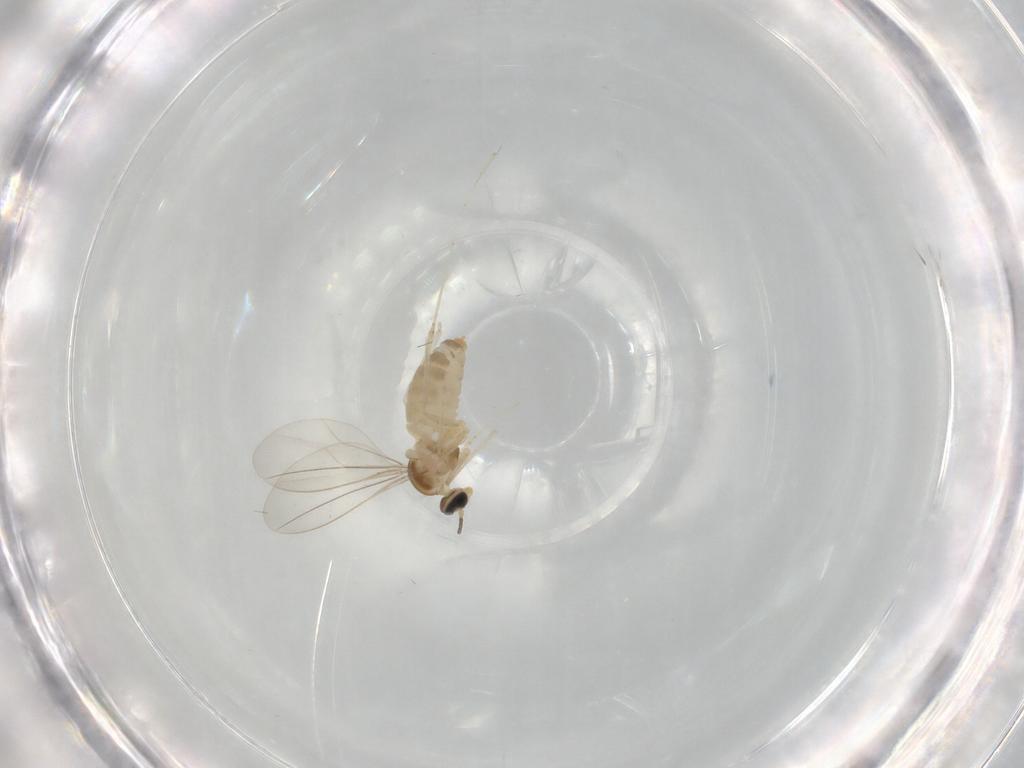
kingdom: Animalia
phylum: Arthropoda
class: Insecta
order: Diptera
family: Cecidomyiidae
